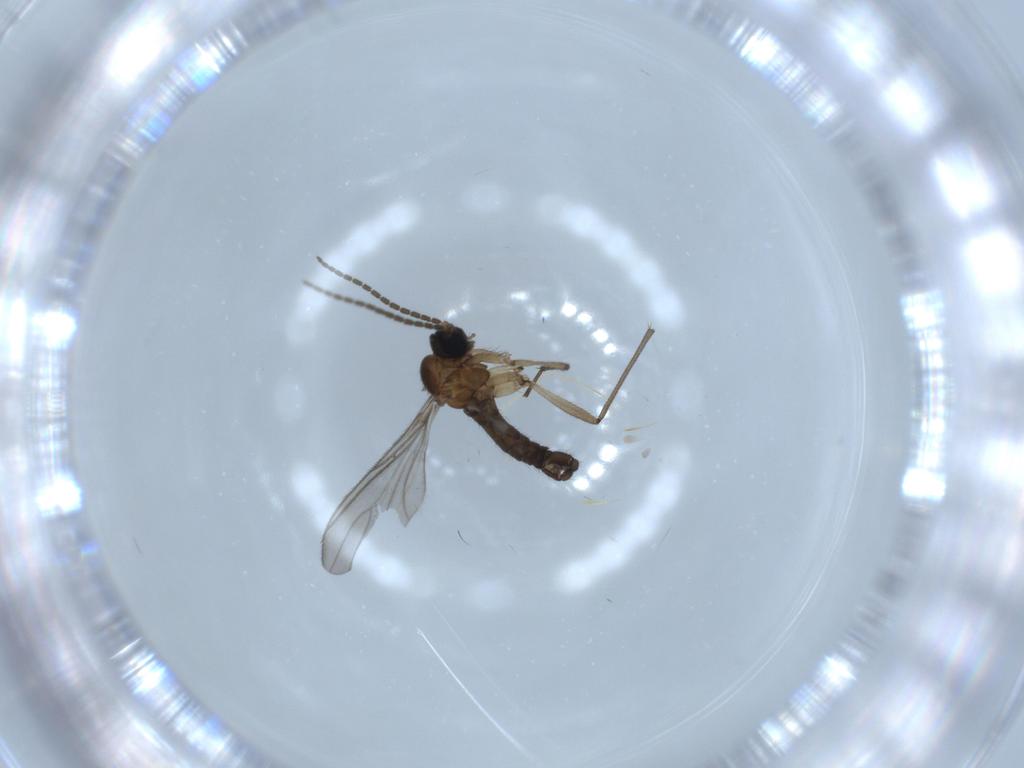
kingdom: Animalia
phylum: Arthropoda
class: Insecta
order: Diptera
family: Sciaridae
